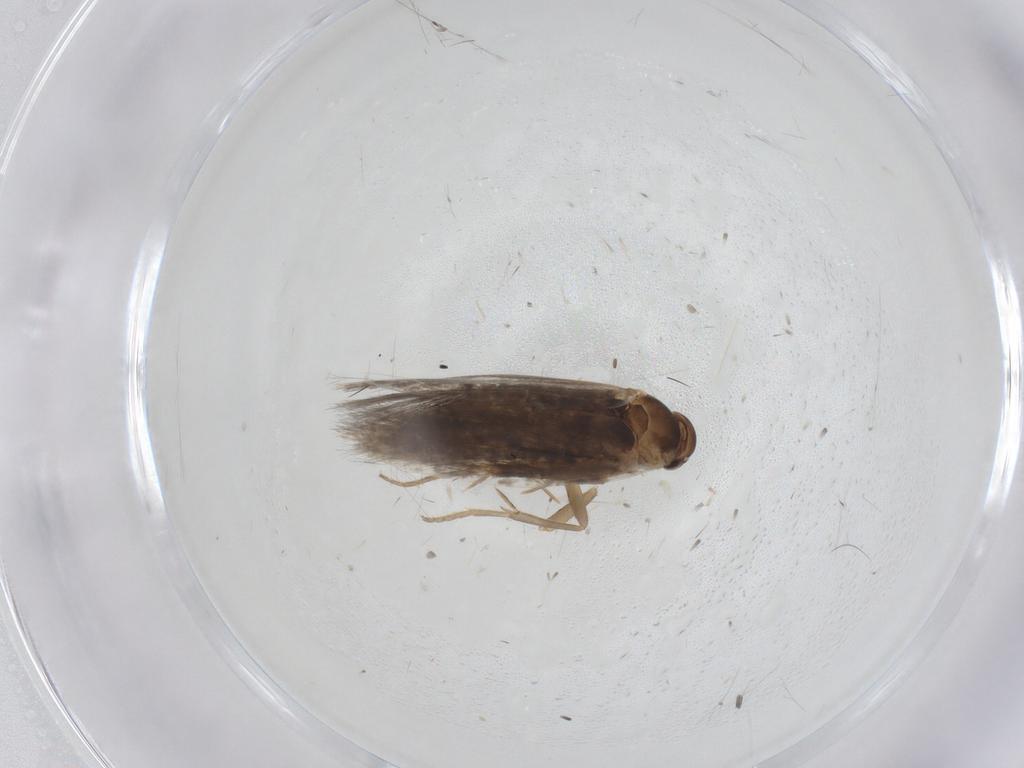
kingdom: Animalia
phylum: Arthropoda
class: Insecta
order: Lepidoptera
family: Elachistidae
